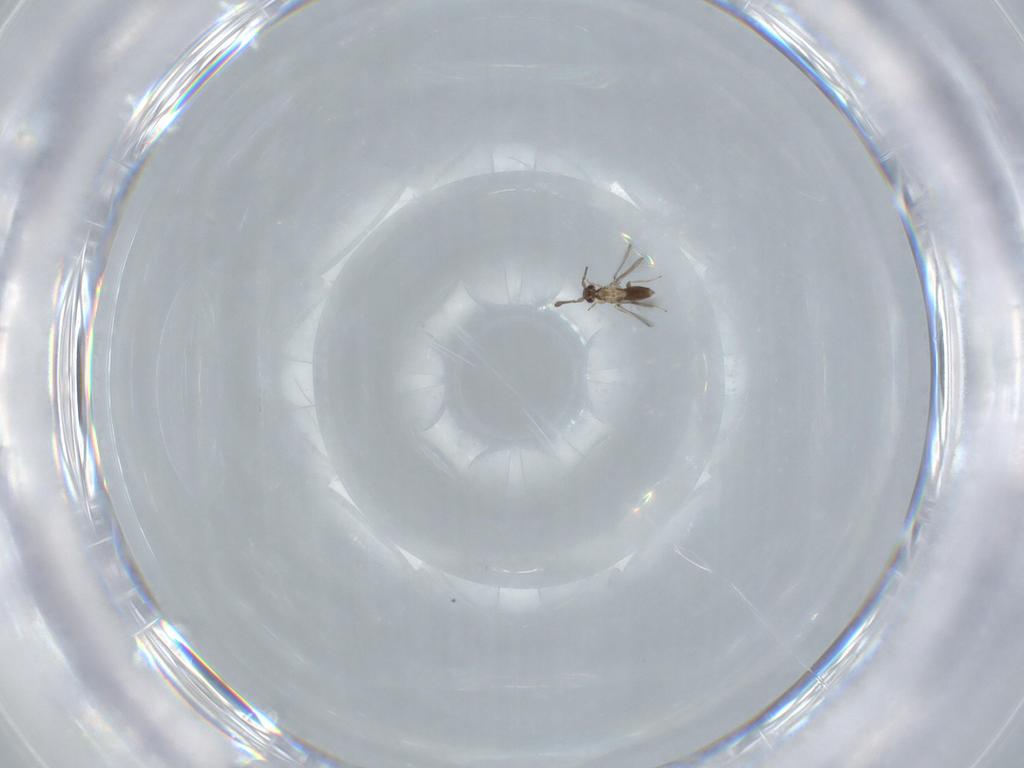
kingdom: Animalia
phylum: Arthropoda
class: Insecta
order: Hymenoptera
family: Mymaridae
